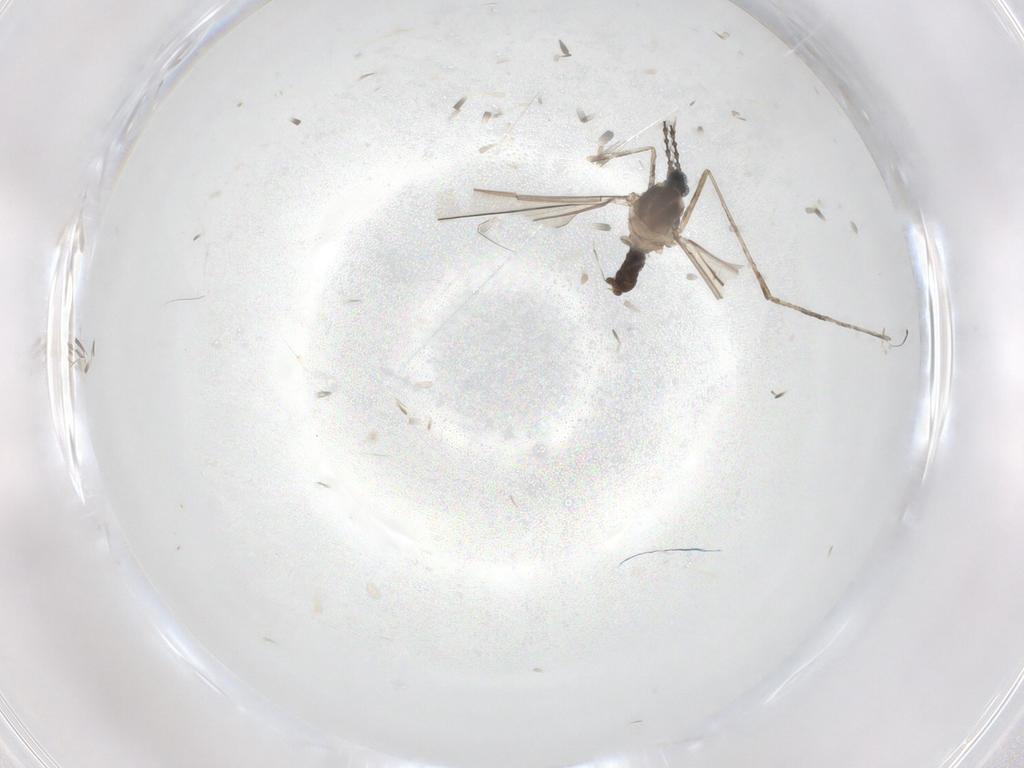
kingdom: Animalia
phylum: Arthropoda
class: Insecta
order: Diptera
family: Cecidomyiidae
